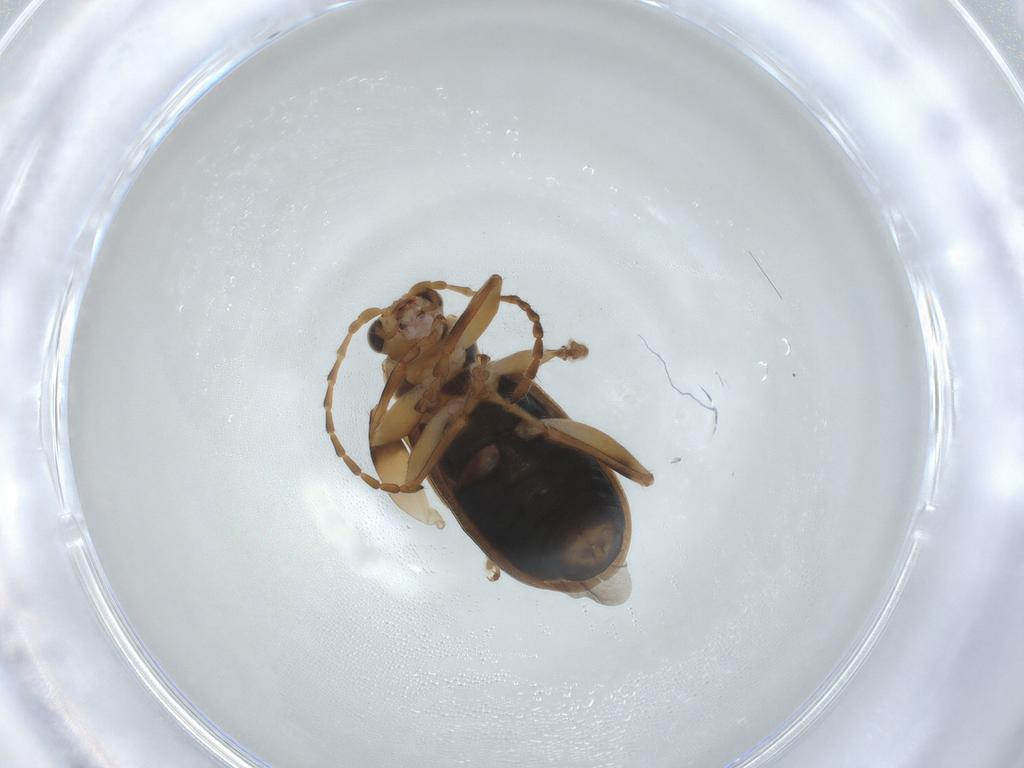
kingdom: Animalia
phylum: Arthropoda
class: Insecta
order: Coleoptera
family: Chrysomelidae
